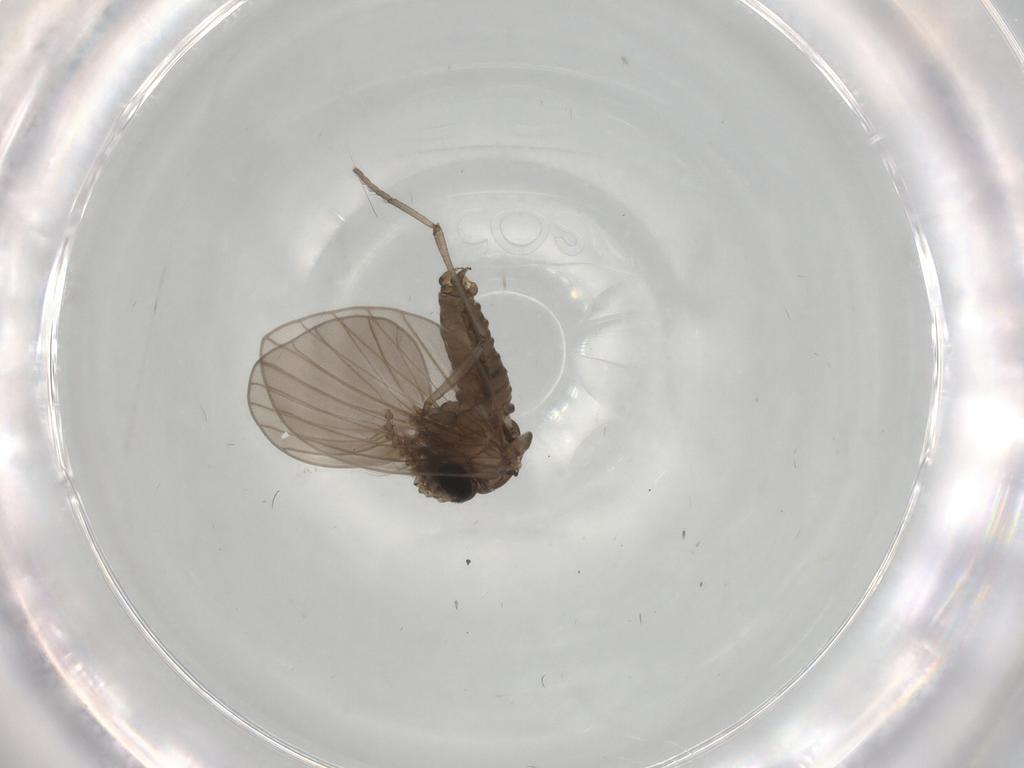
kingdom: Animalia
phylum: Arthropoda
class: Insecta
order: Diptera
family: Sciaridae
